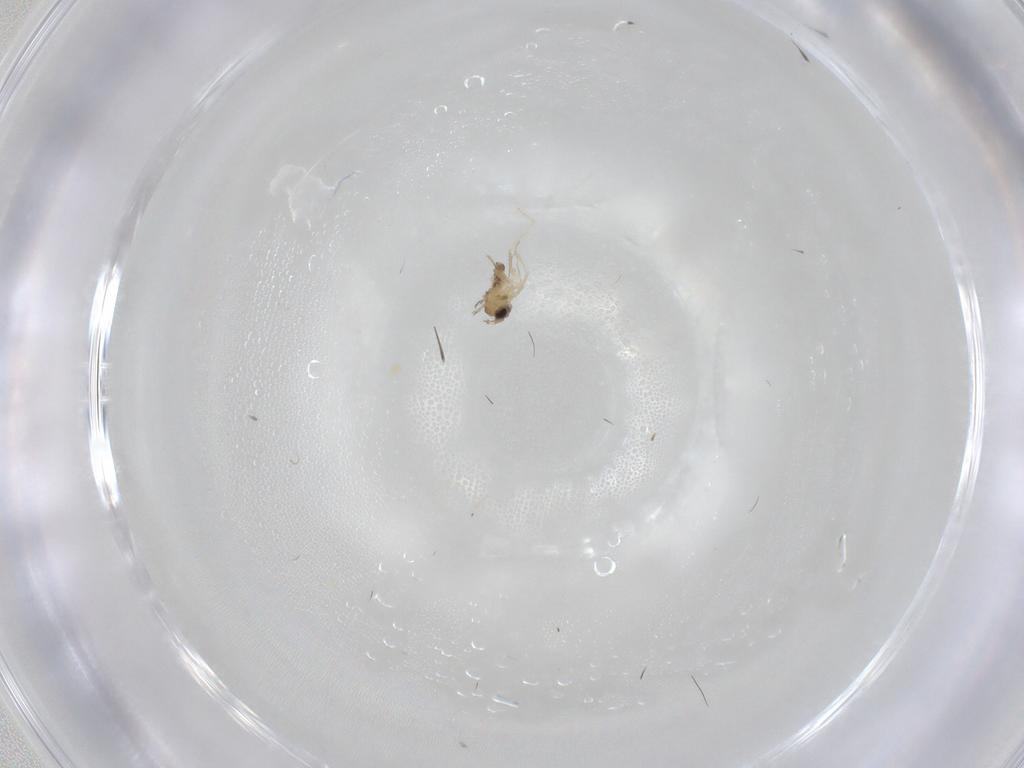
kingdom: Animalia
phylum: Arthropoda
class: Insecta
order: Diptera
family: Cecidomyiidae
